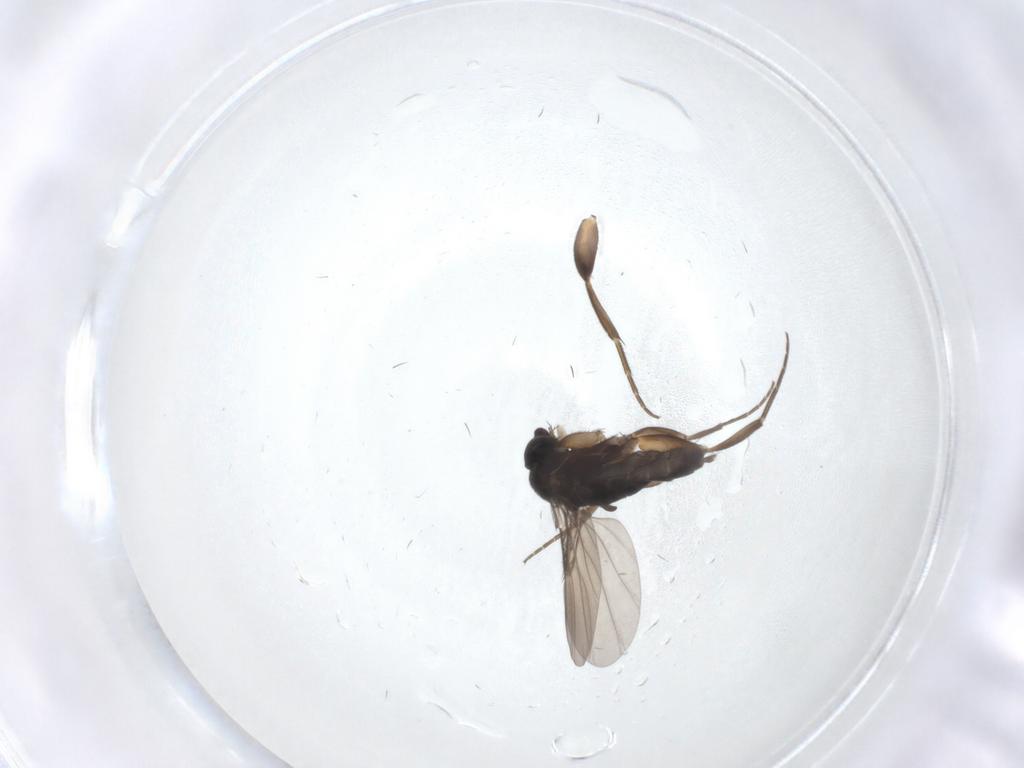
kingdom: Animalia
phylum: Arthropoda
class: Insecta
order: Diptera
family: Phoridae
